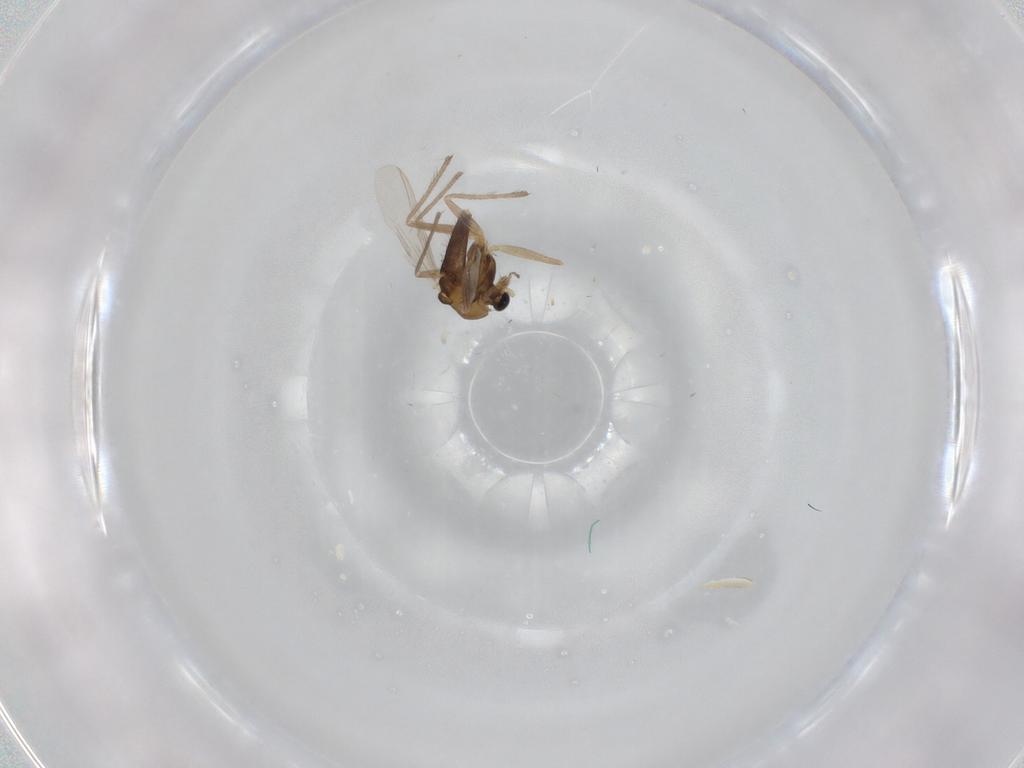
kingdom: Animalia
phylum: Arthropoda
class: Insecta
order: Diptera
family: Chironomidae
